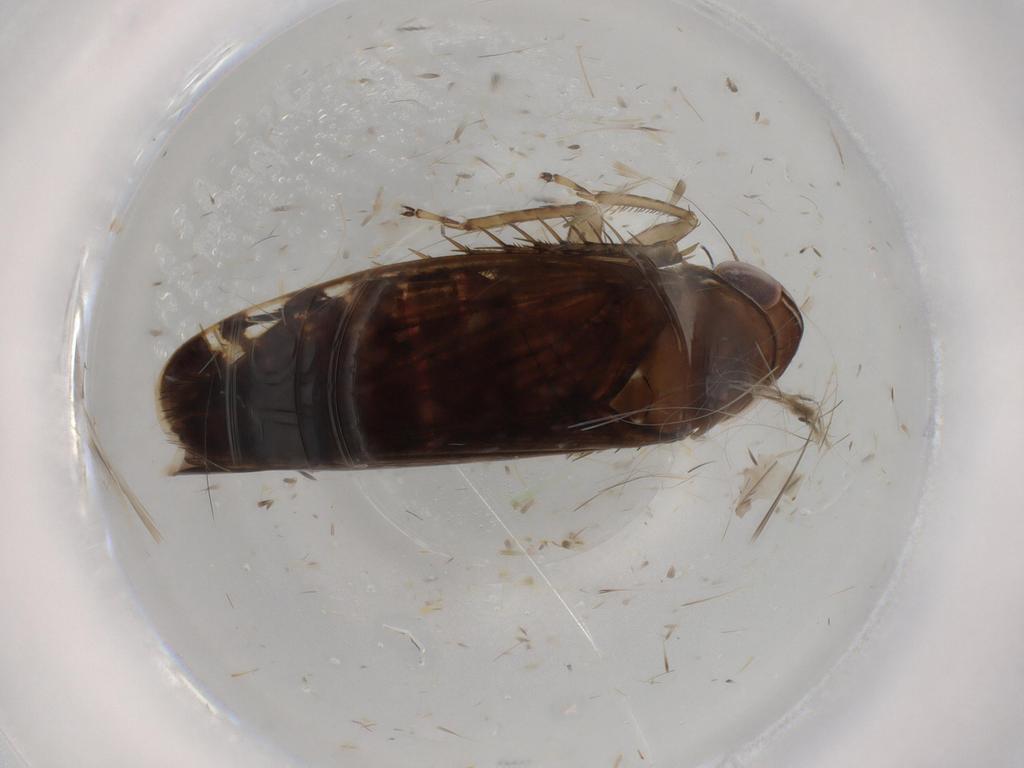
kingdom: Animalia
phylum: Arthropoda
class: Insecta
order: Hemiptera
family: Cicadellidae
